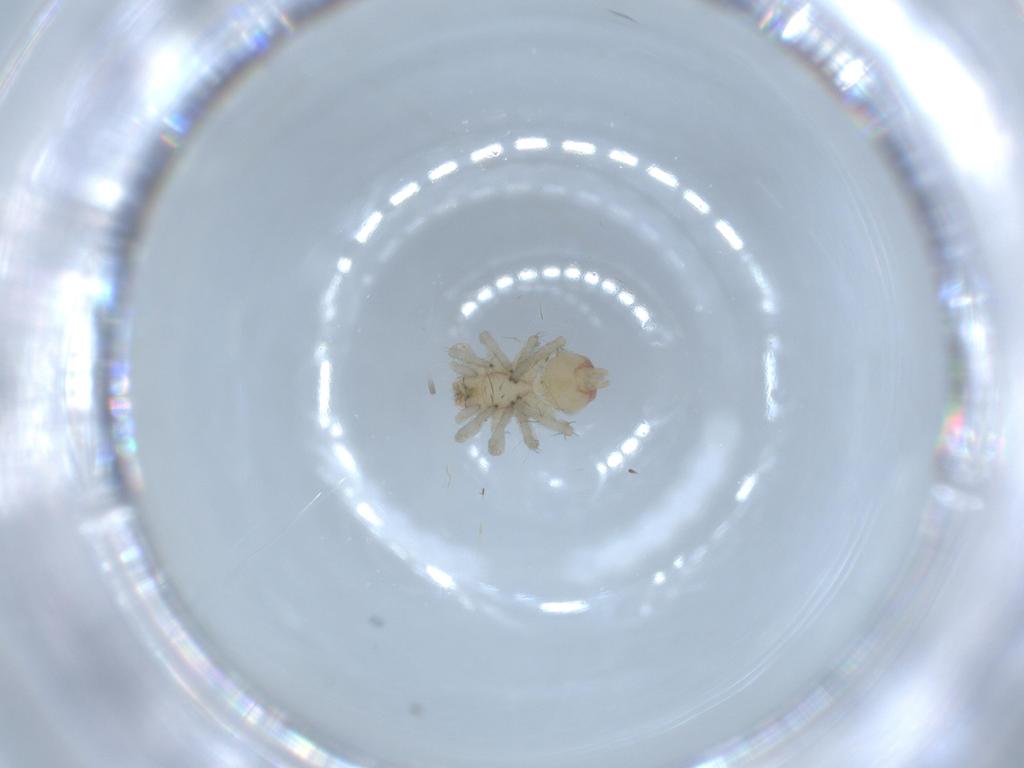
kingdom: Animalia
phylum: Arthropoda
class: Arachnida
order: Araneae
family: Clubionidae
